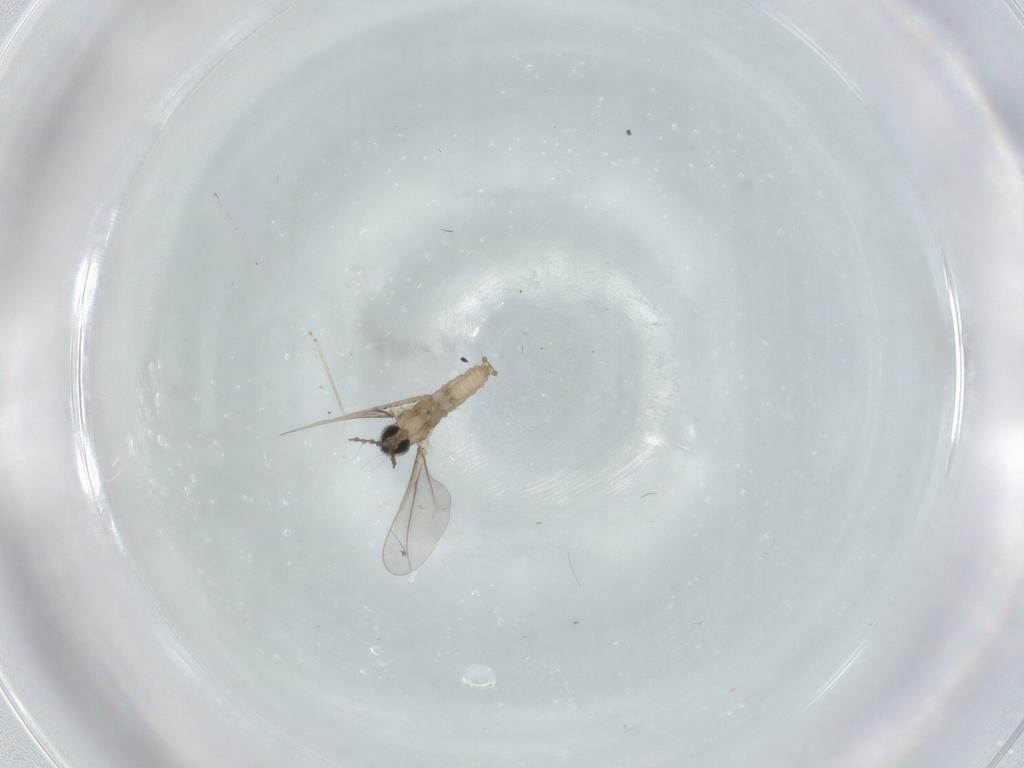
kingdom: Animalia
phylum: Arthropoda
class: Insecta
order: Diptera
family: Cecidomyiidae
